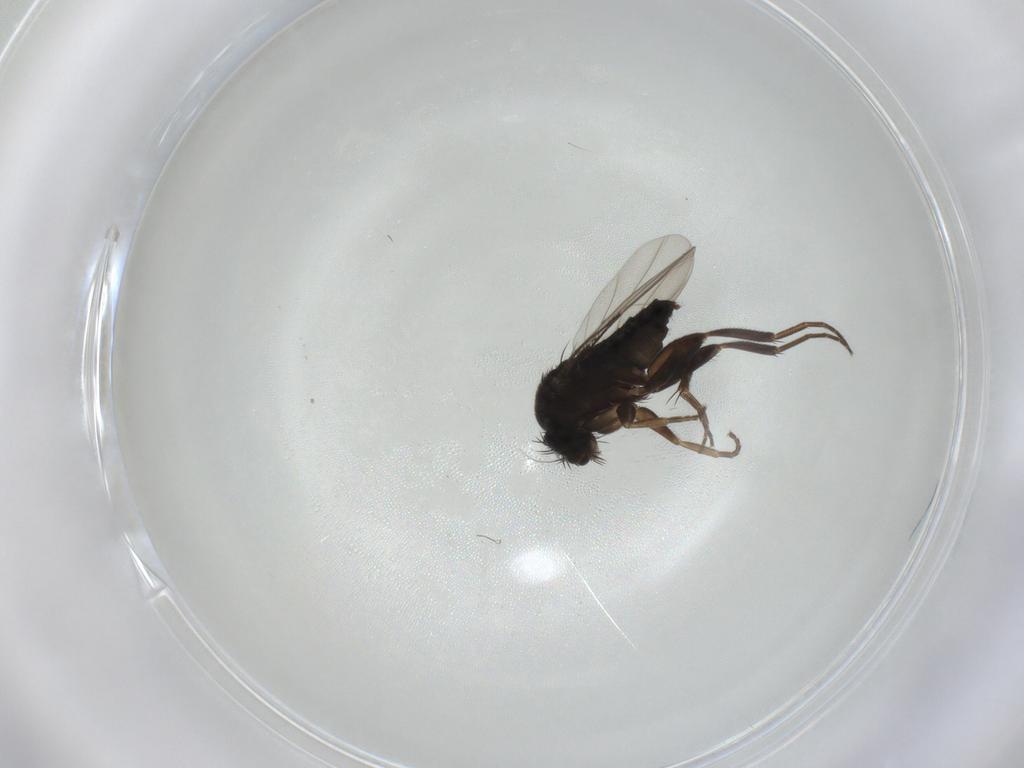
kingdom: Animalia
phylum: Arthropoda
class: Insecta
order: Diptera
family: Phoridae
